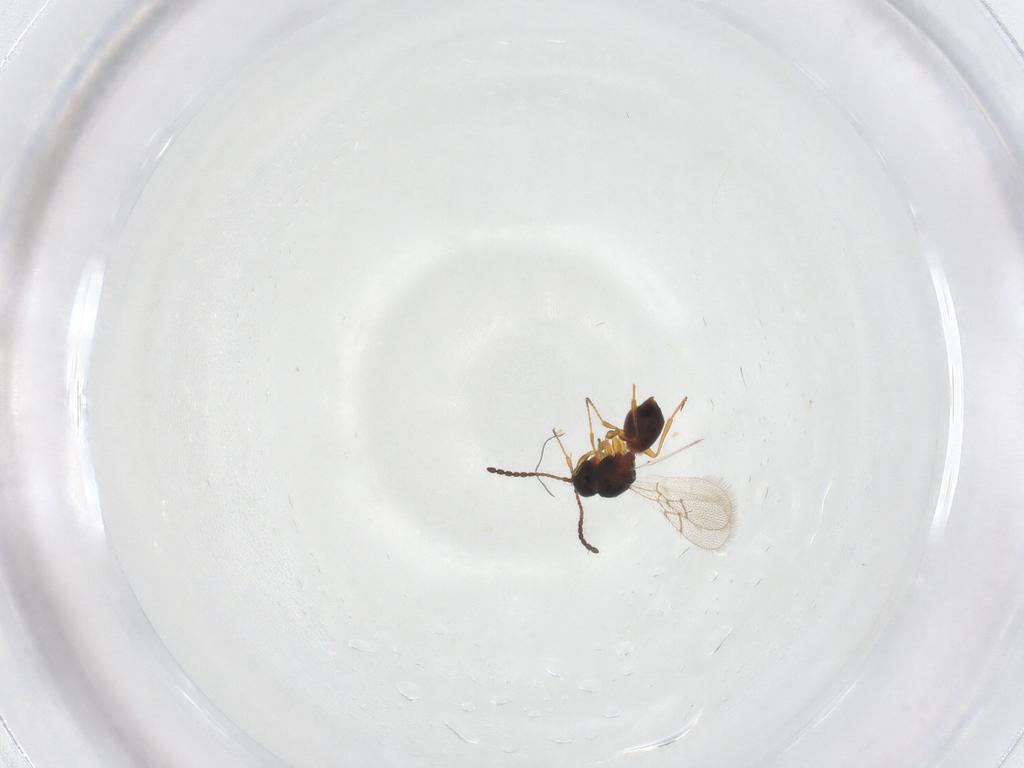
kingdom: Animalia
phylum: Arthropoda
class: Insecta
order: Hymenoptera
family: Figitidae
